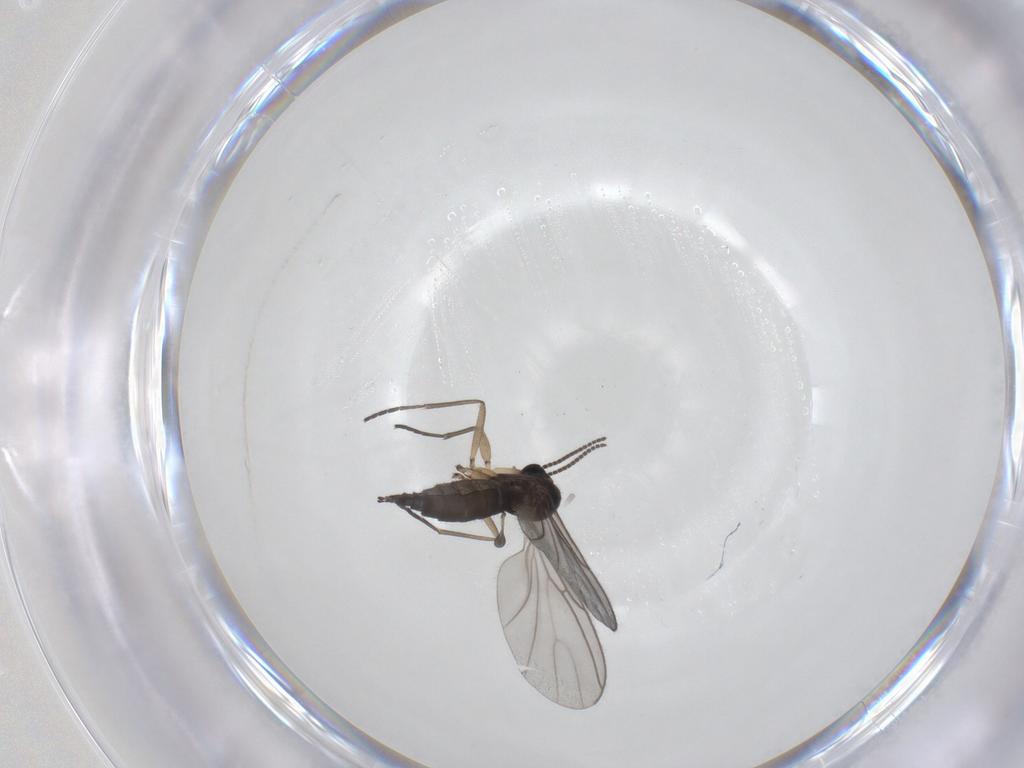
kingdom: Animalia
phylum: Arthropoda
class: Insecta
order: Diptera
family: Sciaridae
